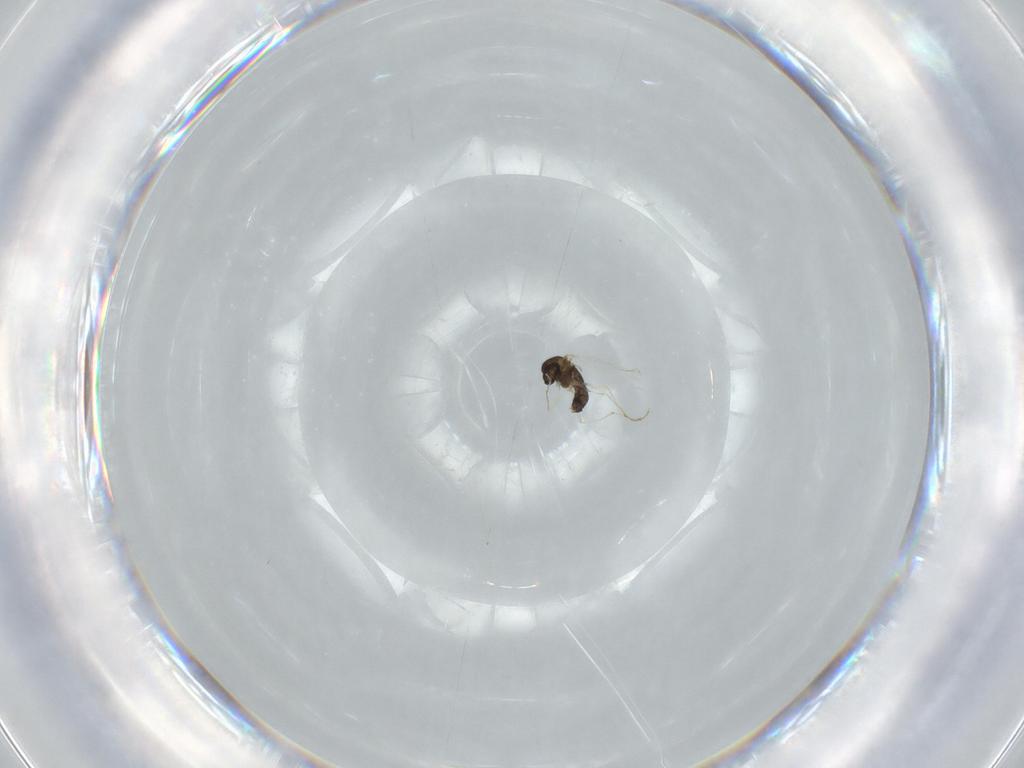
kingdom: Animalia
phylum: Arthropoda
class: Insecta
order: Diptera
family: Chironomidae
